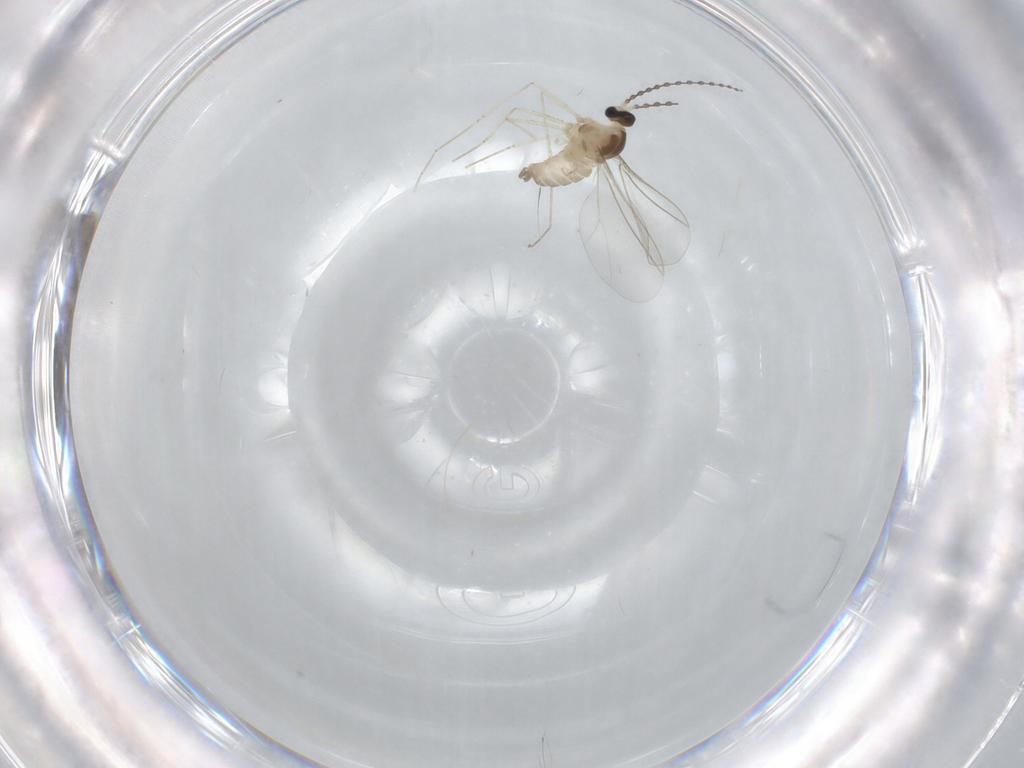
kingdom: Animalia
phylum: Arthropoda
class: Insecta
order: Diptera
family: Cecidomyiidae
